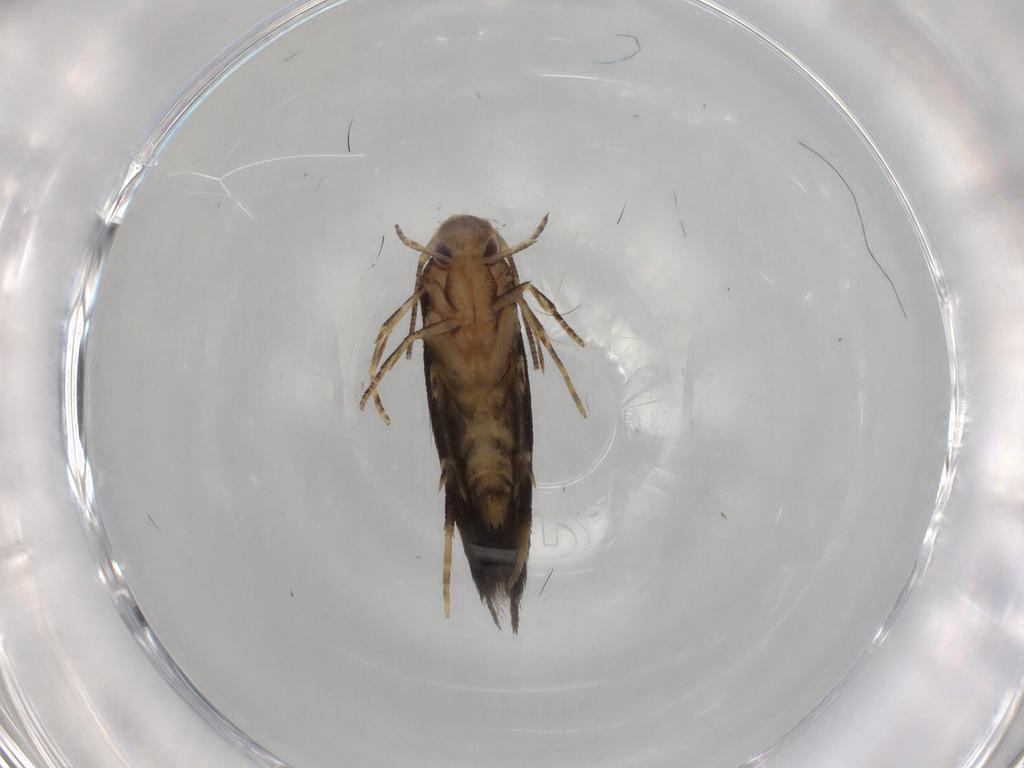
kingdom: Animalia
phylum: Arthropoda
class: Insecta
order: Lepidoptera
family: Momphidae
